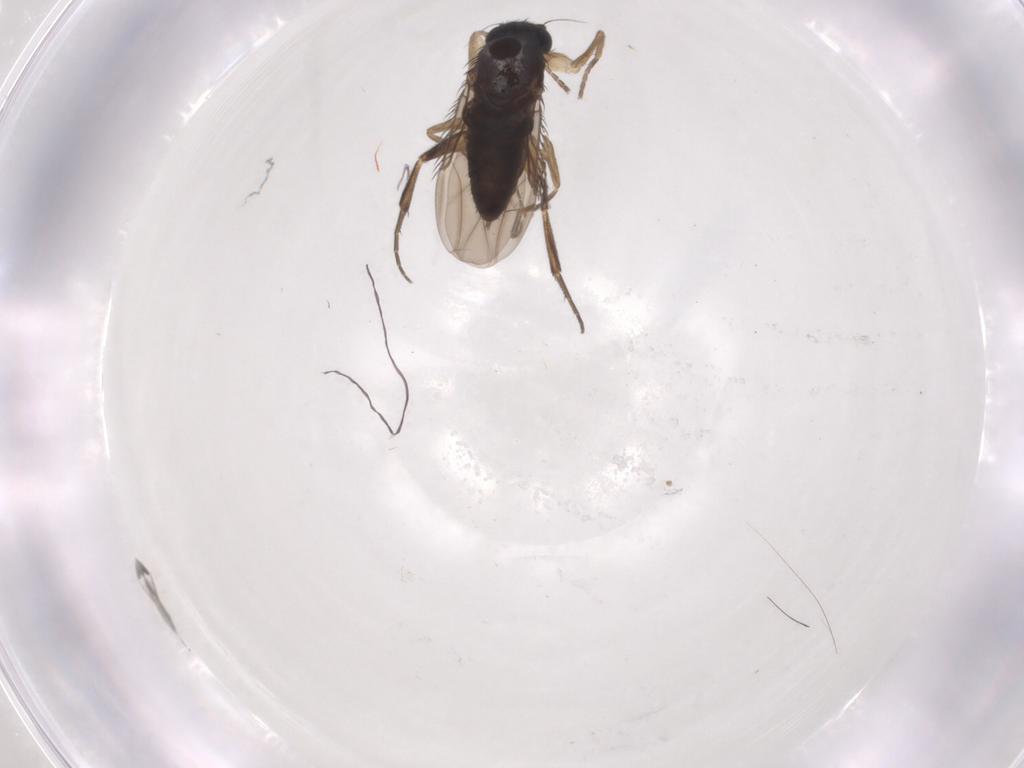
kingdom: Animalia
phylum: Arthropoda
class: Insecta
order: Diptera
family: Phoridae
